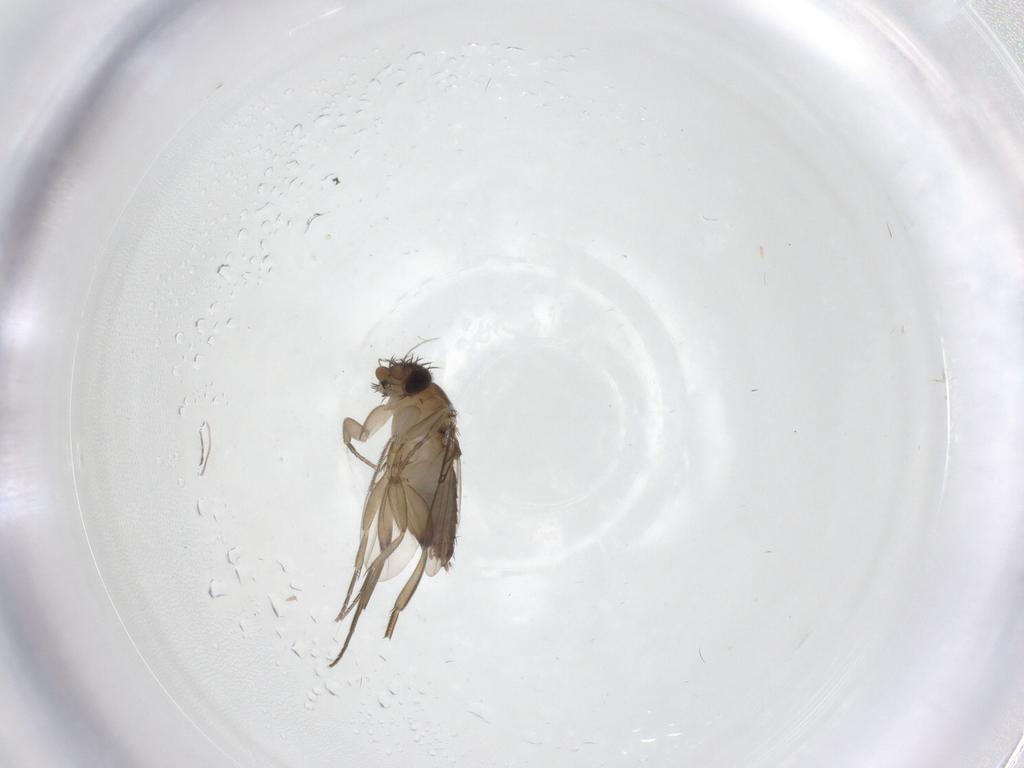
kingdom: Animalia
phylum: Arthropoda
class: Insecta
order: Diptera
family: Phoridae
